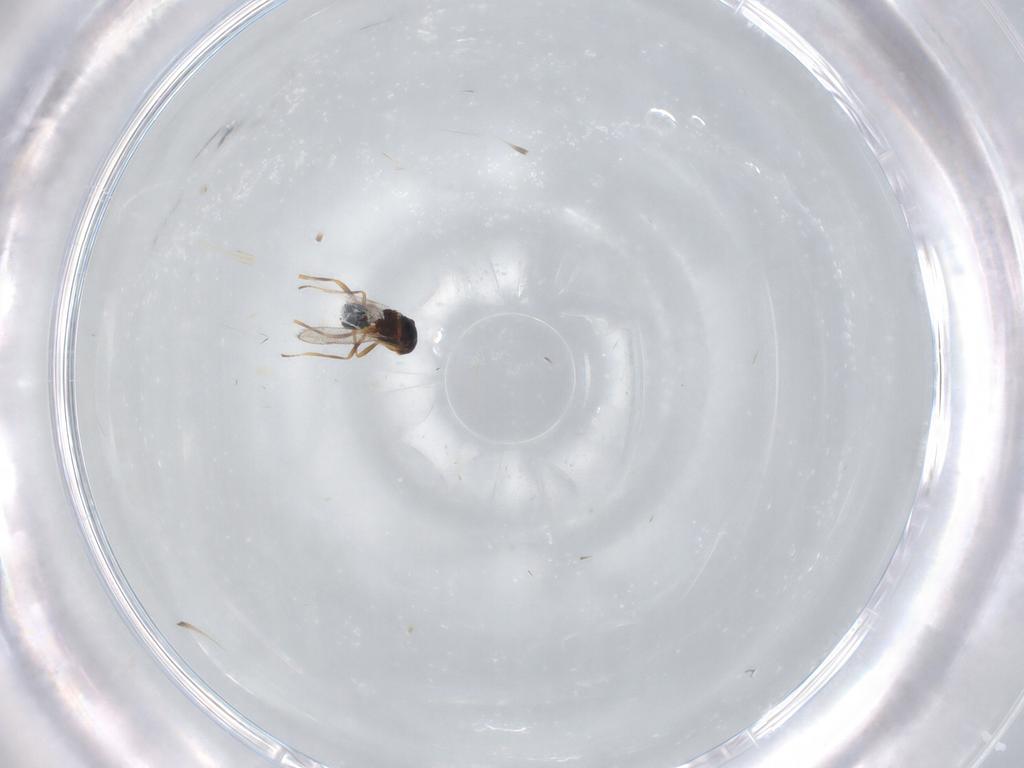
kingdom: Animalia
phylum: Arthropoda
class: Insecta
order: Hymenoptera
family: Diparidae
